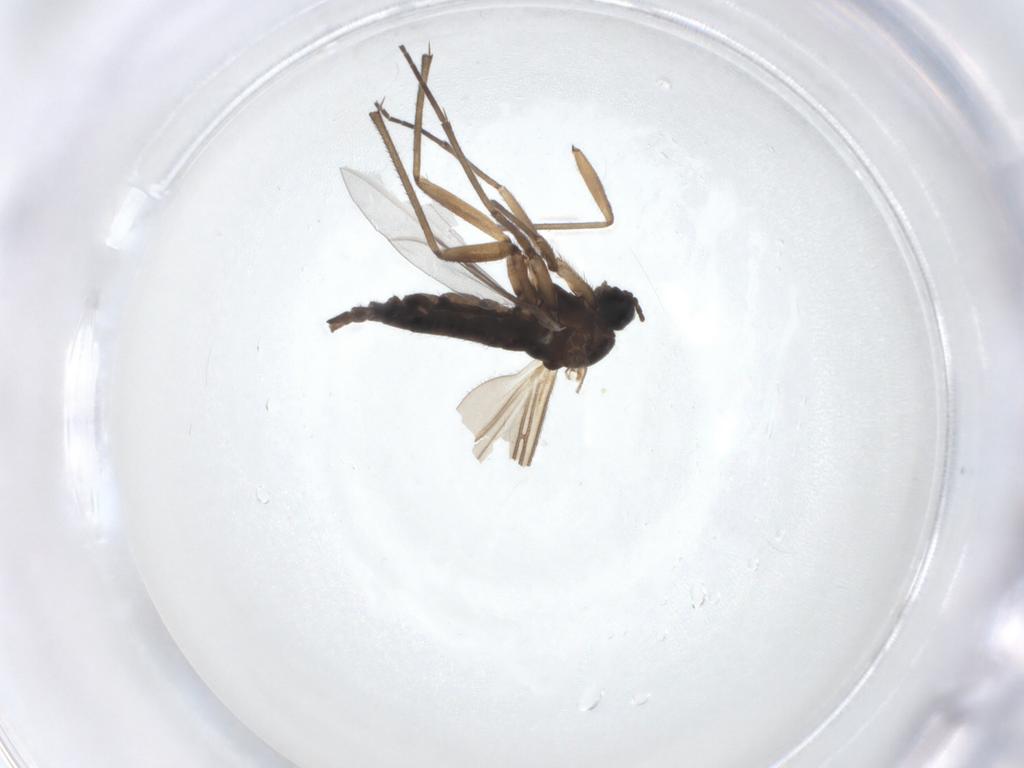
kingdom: Animalia
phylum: Arthropoda
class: Insecta
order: Diptera
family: Sciaridae
